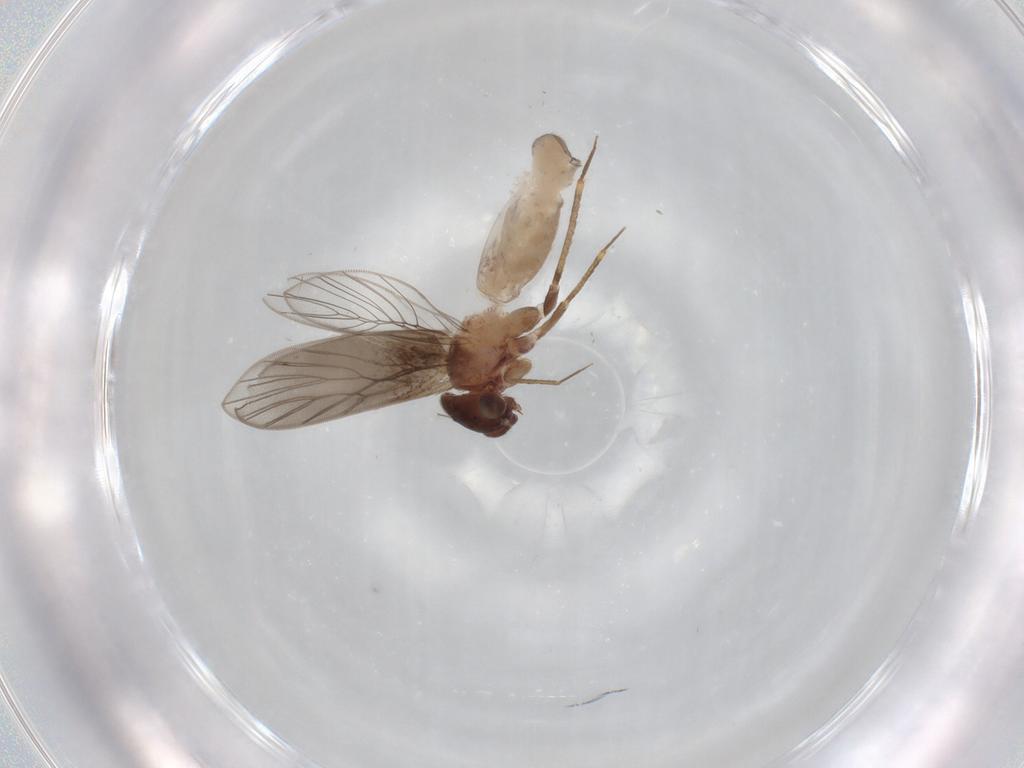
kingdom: Animalia
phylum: Arthropoda
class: Insecta
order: Psocodea
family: Lepidopsocidae
